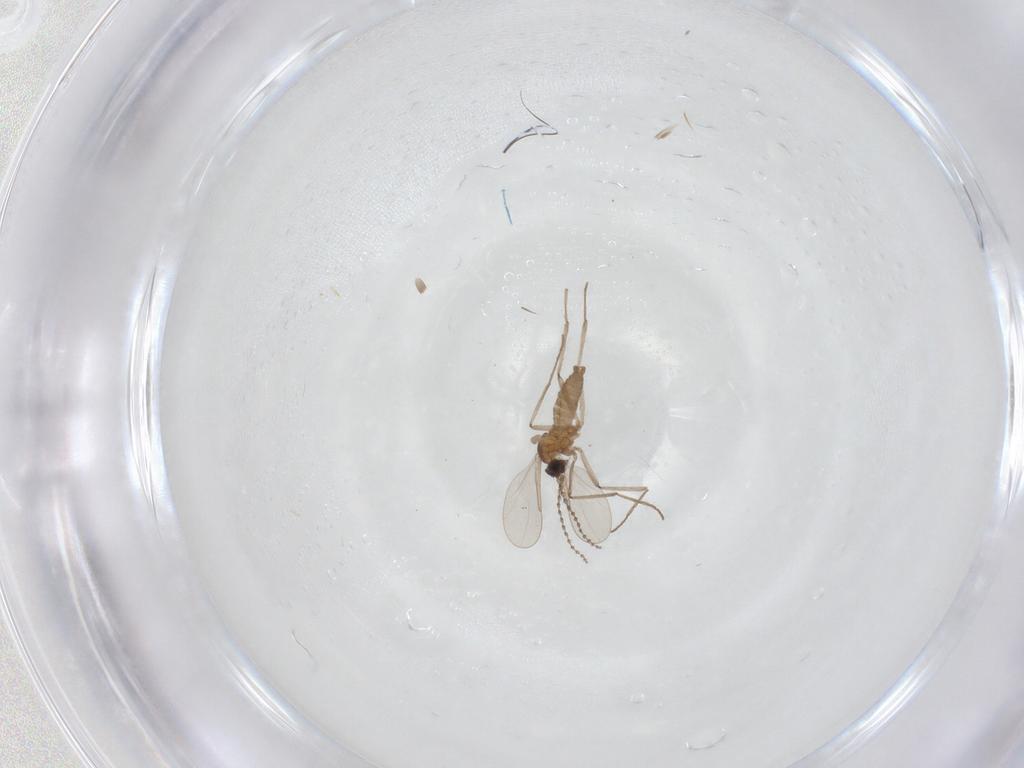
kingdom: Animalia
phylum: Arthropoda
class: Insecta
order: Diptera
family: Cecidomyiidae
